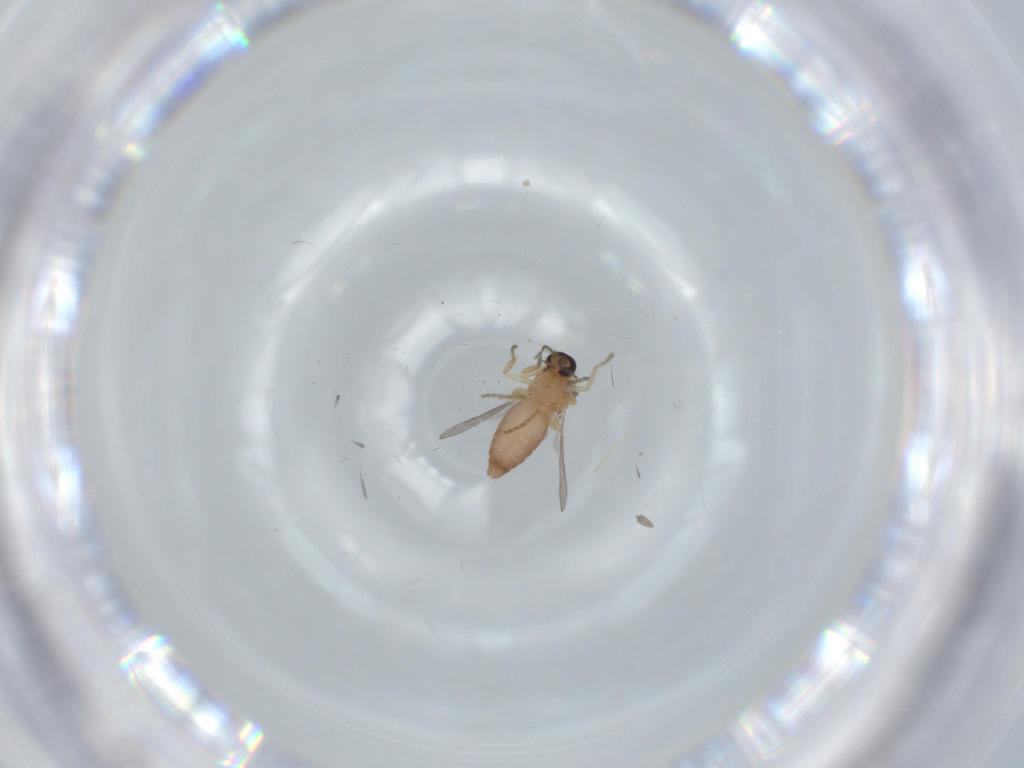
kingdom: Animalia
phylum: Arthropoda
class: Insecta
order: Diptera
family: Ceratopogonidae
